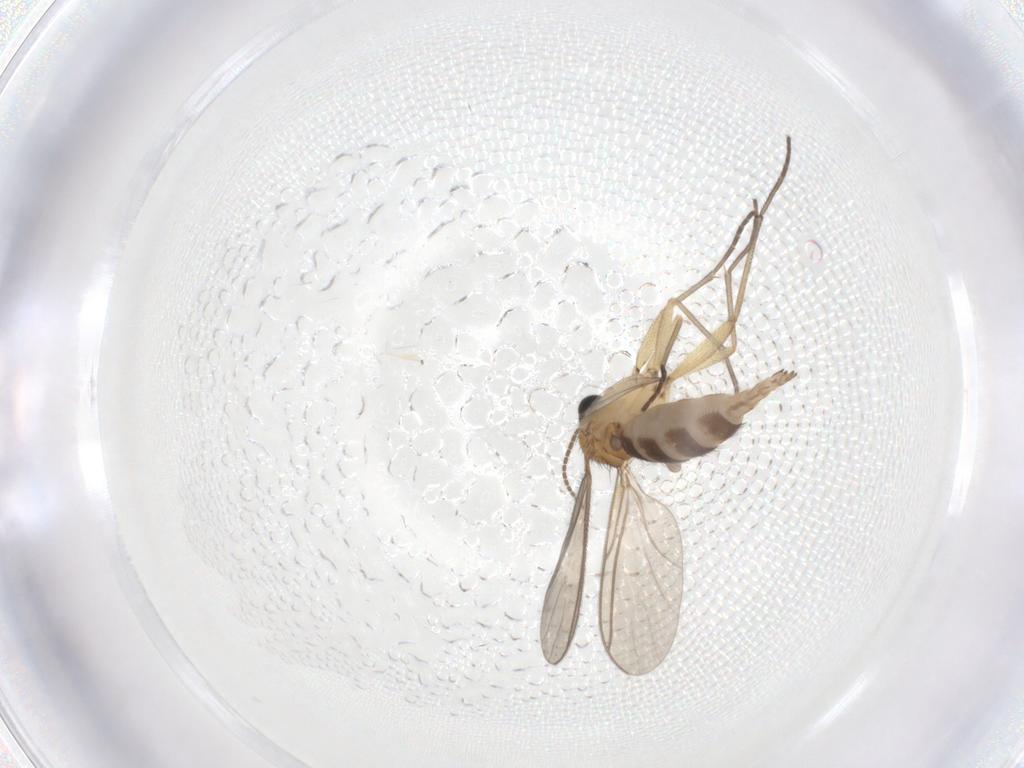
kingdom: Animalia
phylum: Arthropoda
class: Insecta
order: Diptera
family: Sciaridae
